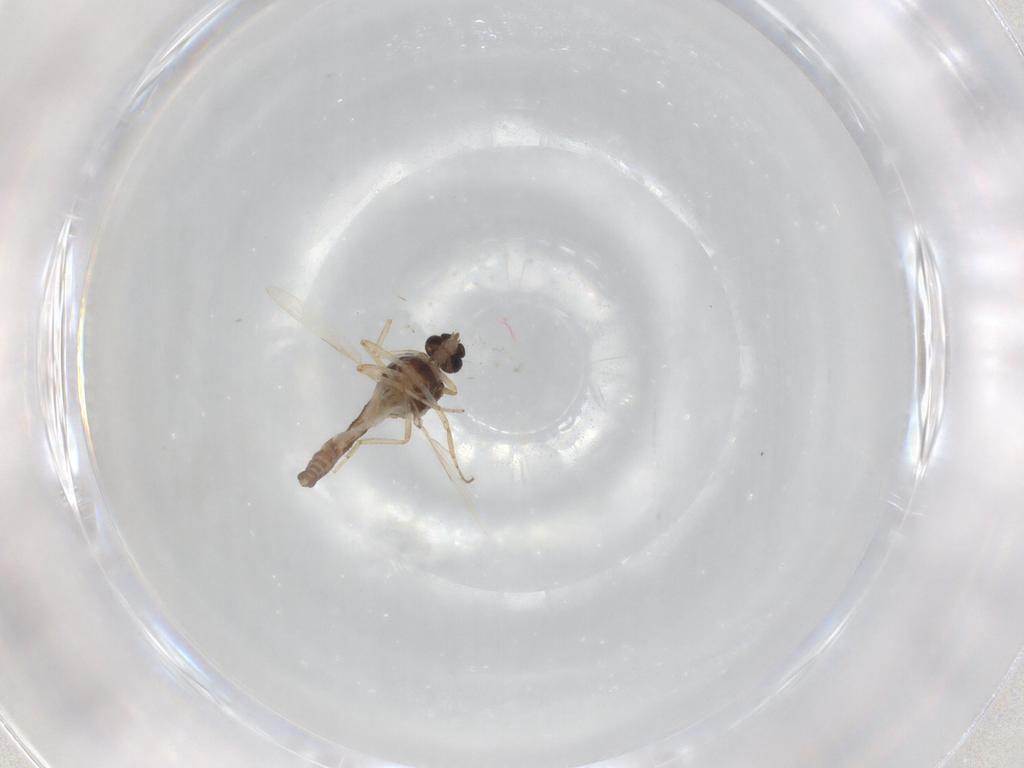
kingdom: Animalia
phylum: Arthropoda
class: Insecta
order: Diptera
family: Ceratopogonidae
